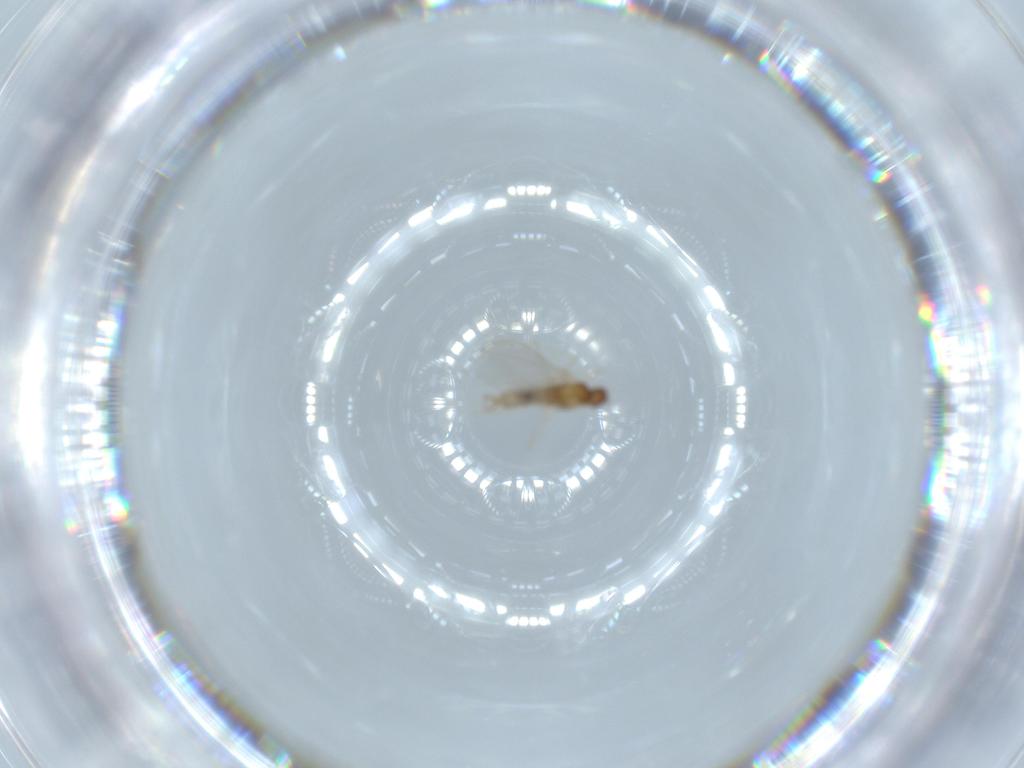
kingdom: Animalia
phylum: Arthropoda
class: Insecta
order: Diptera
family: Cecidomyiidae
